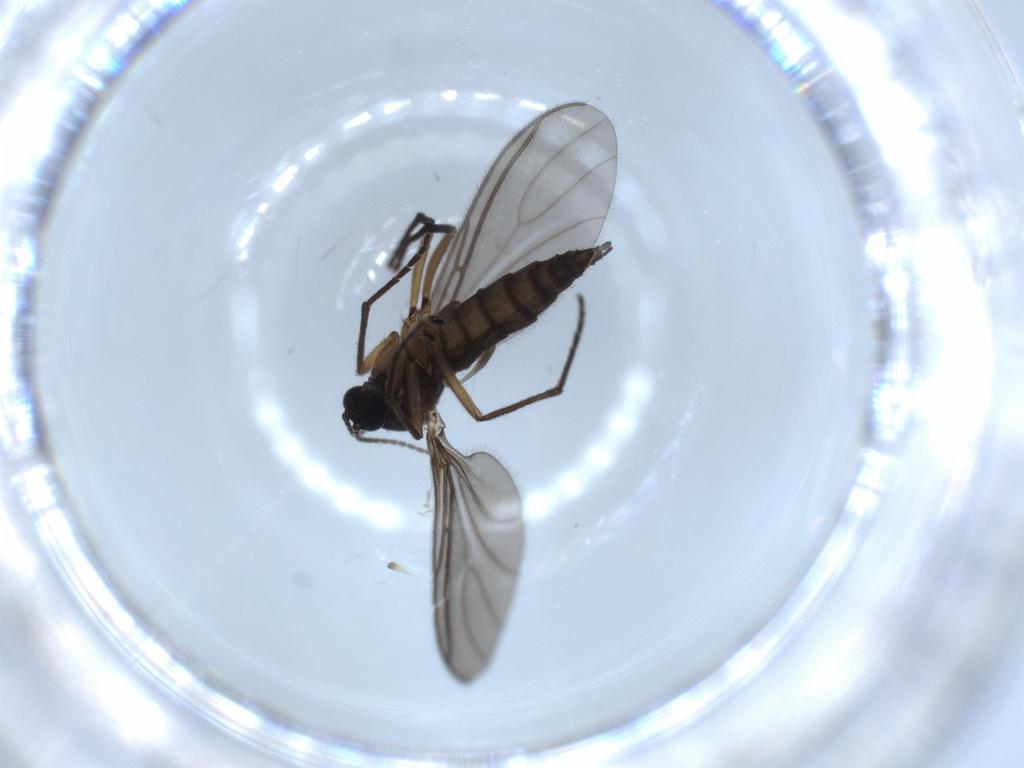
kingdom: Animalia
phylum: Arthropoda
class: Insecta
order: Diptera
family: Sciaridae
